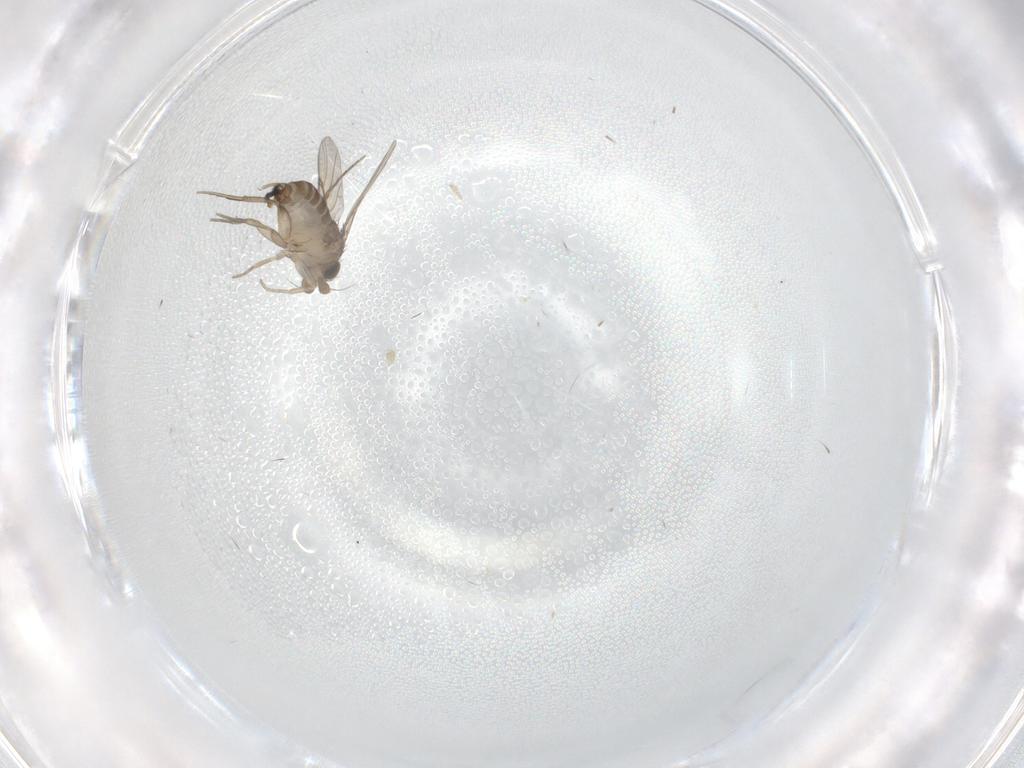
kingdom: Animalia
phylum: Arthropoda
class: Insecta
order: Diptera
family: Phoridae
